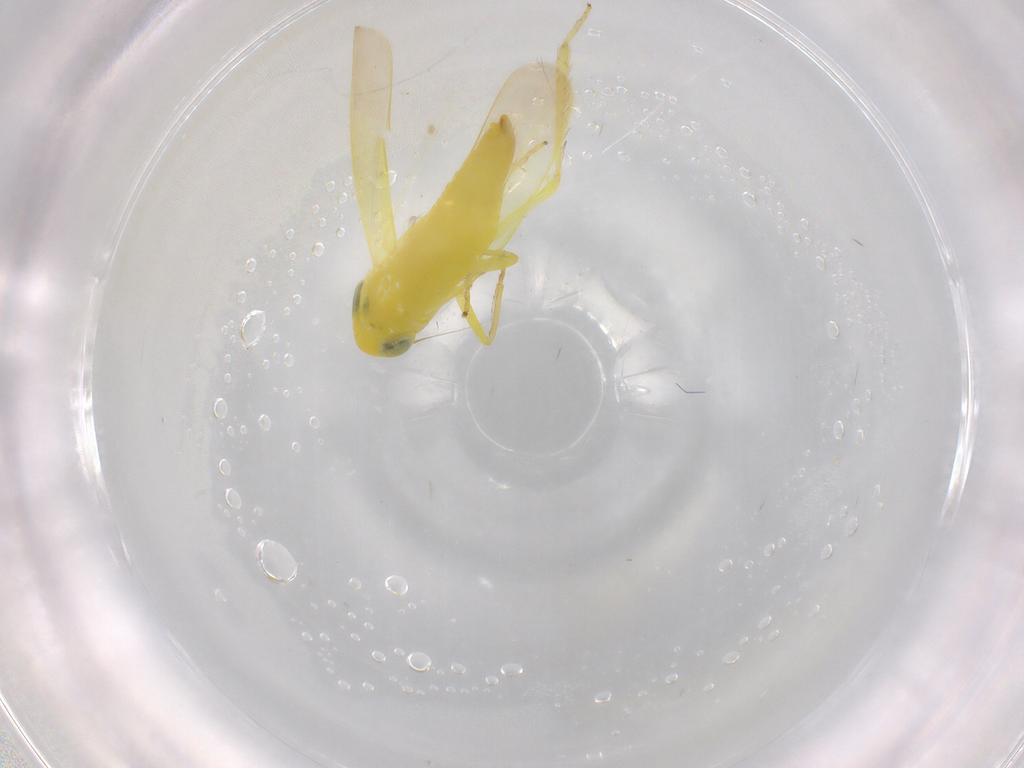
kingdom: Animalia
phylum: Arthropoda
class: Insecta
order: Hemiptera
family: Cicadellidae
